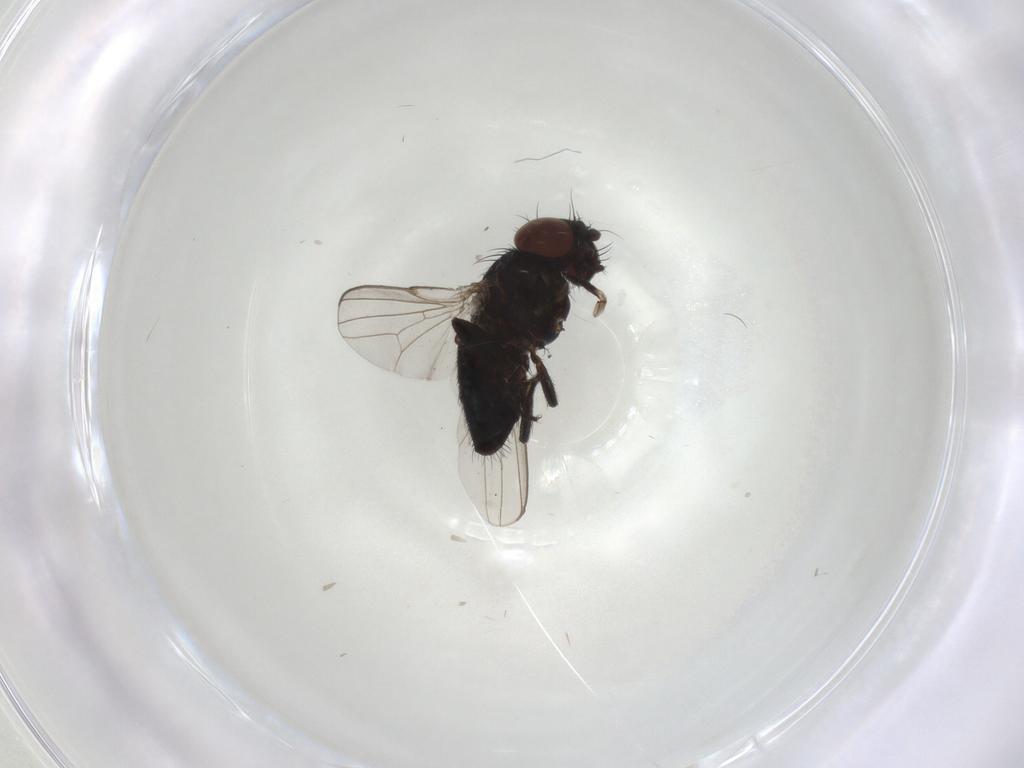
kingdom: Animalia
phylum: Arthropoda
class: Insecta
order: Diptera
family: Milichiidae
